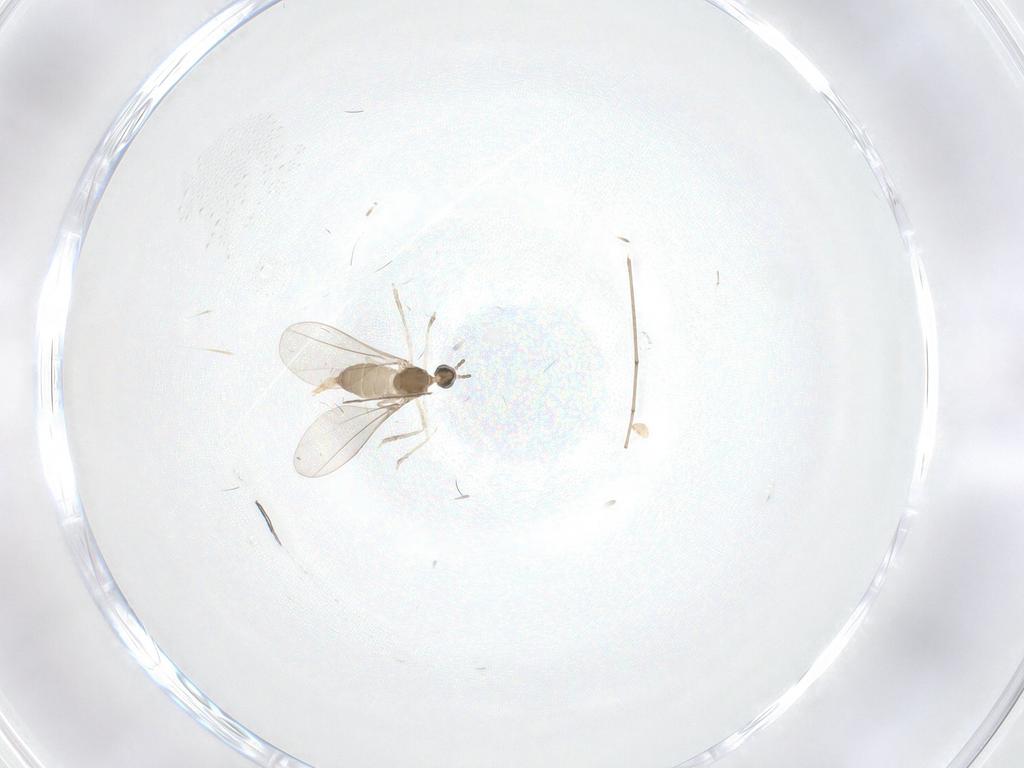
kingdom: Animalia
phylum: Arthropoda
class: Insecta
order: Diptera
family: Cecidomyiidae
